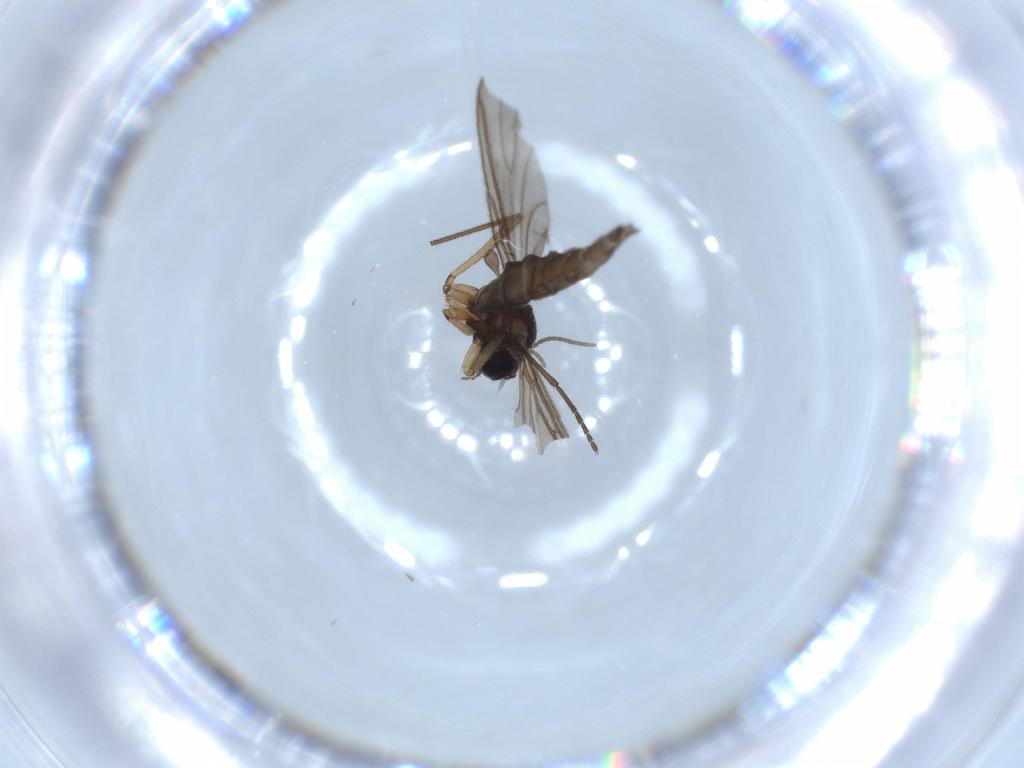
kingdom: Animalia
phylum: Arthropoda
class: Insecta
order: Diptera
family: Sciaridae
